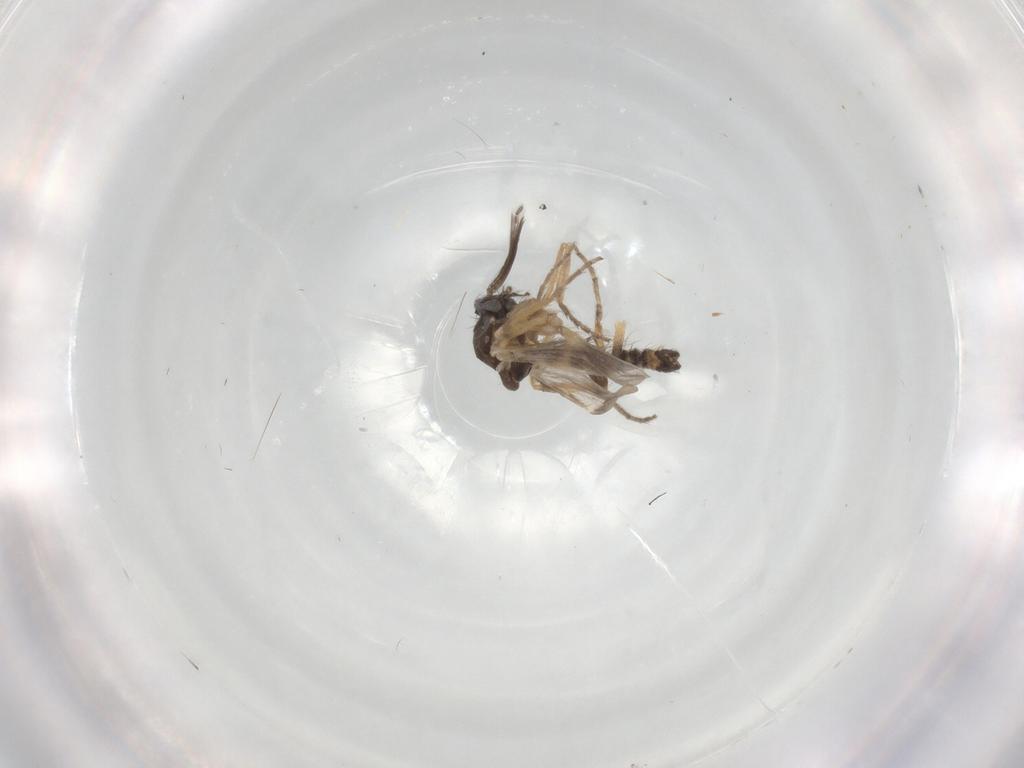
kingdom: Animalia
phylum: Arthropoda
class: Insecta
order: Diptera
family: Ceratopogonidae
